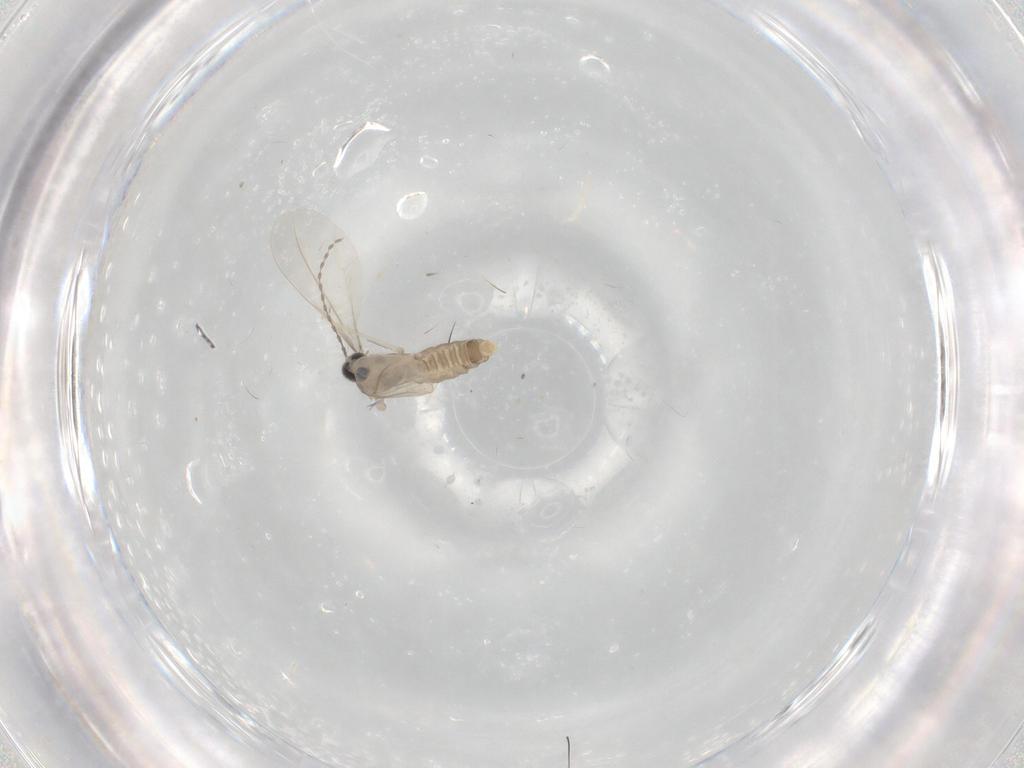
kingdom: Animalia
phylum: Arthropoda
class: Insecta
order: Diptera
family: Cecidomyiidae
